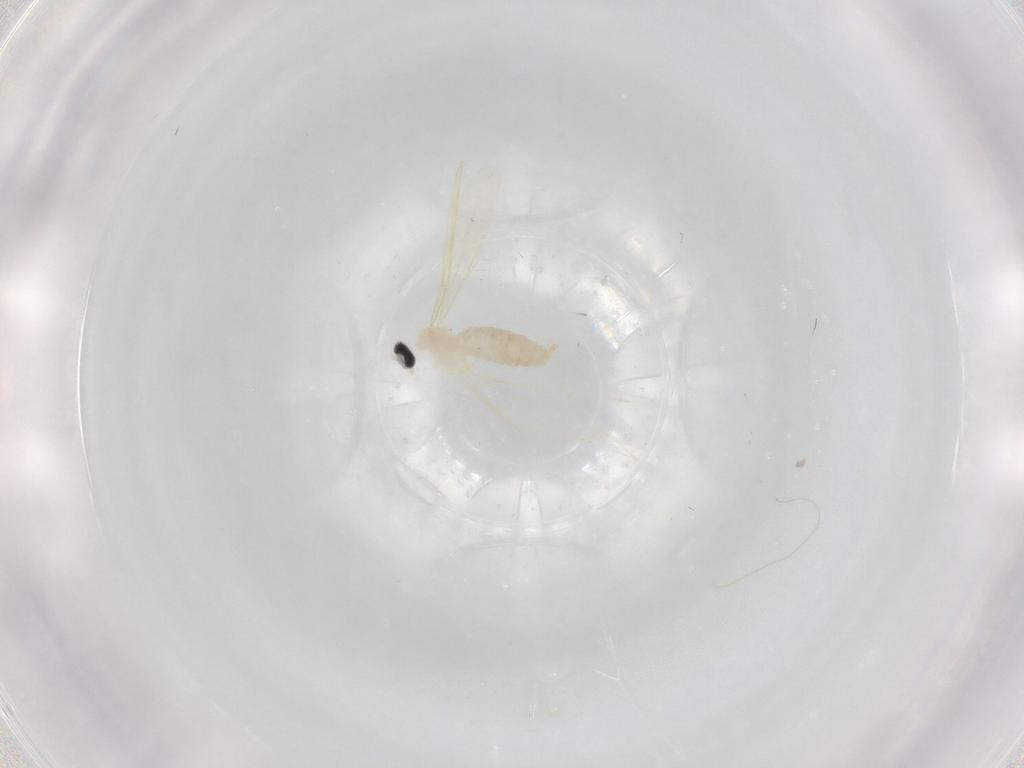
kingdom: Animalia
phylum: Arthropoda
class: Insecta
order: Diptera
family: Cecidomyiidae
